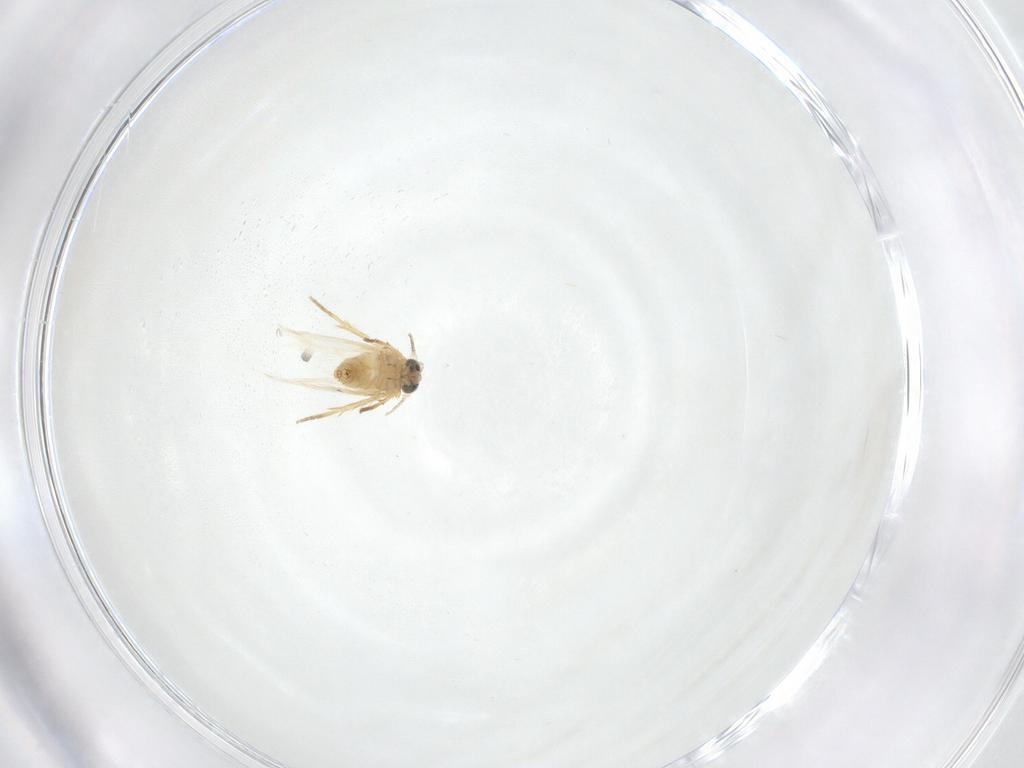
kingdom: Animalia
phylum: Arthropoda
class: Insecta
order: Lepidoptera
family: Crambidae
